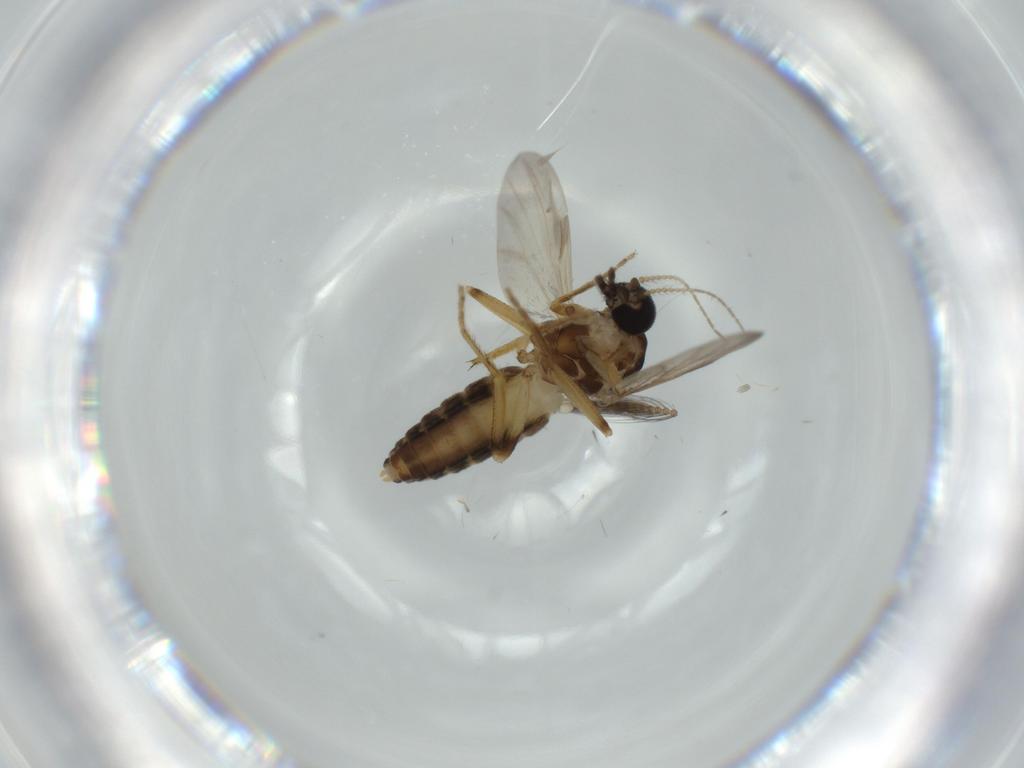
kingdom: Animalia
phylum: Arthropoda
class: Insecta
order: Diptera
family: Ceratopogonidae
